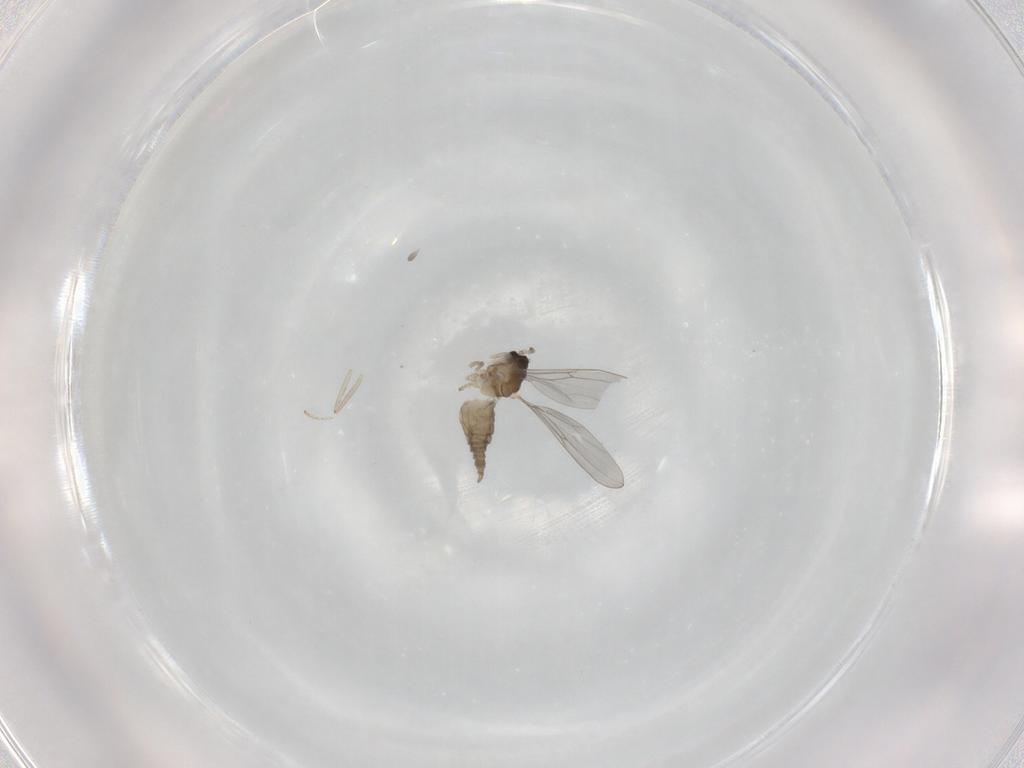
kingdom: Animalia
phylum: Arthropoda
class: Insecta
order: Diptera
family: Cecidomyiidae
